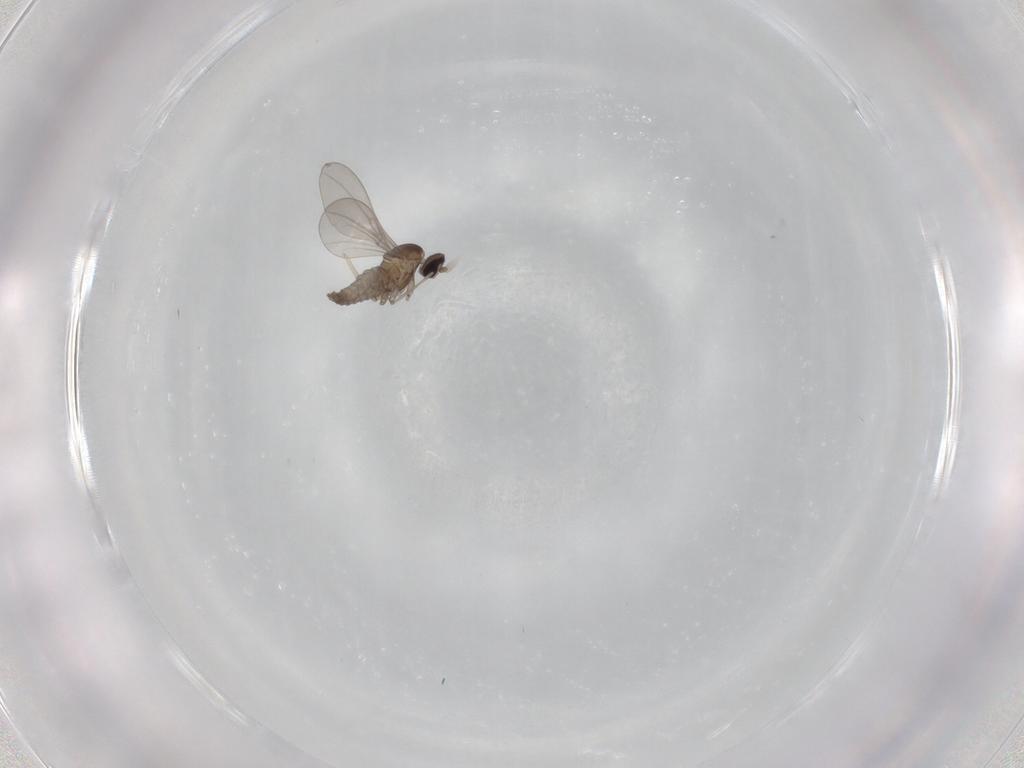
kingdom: Animalia
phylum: Arthropoda
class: Insecta
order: Diptera
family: Cecidomyiidae
